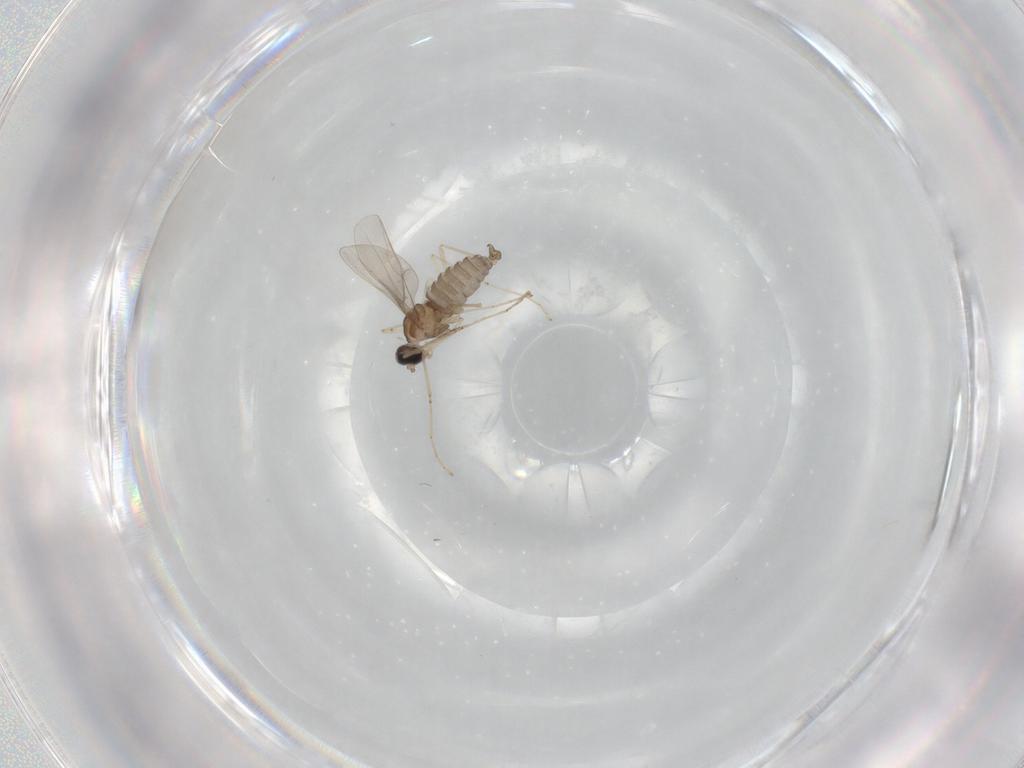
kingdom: Animalia
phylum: Arthropoda
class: Insecta
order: Diptera
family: Cecidomyiidae
